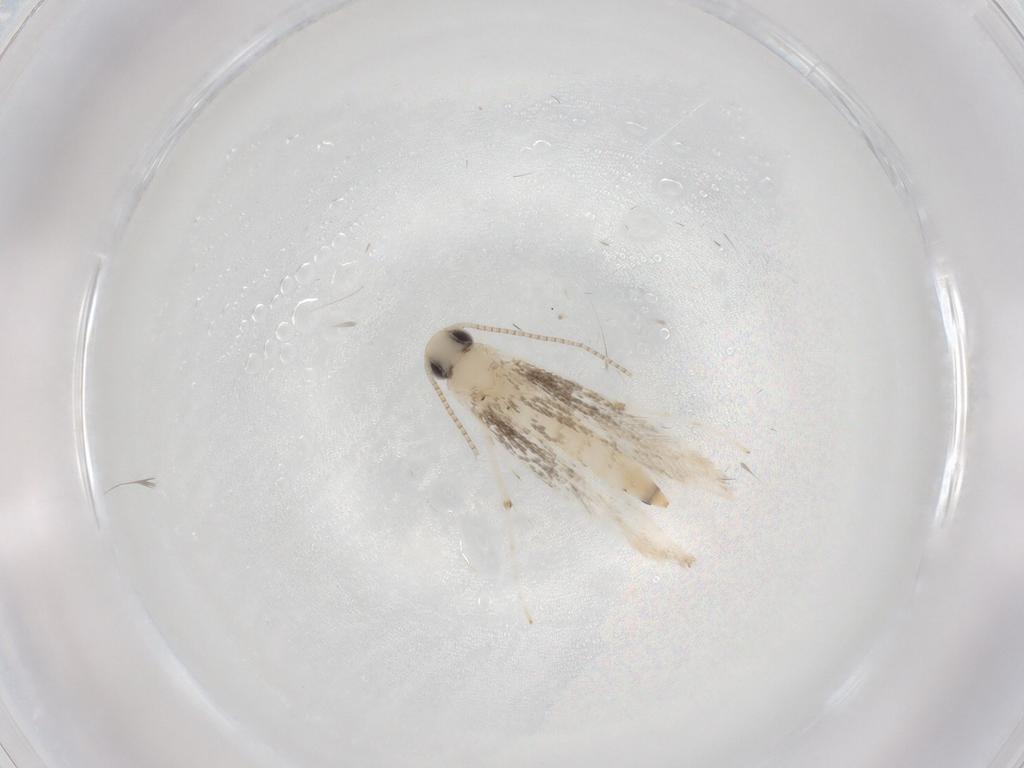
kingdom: Animalia
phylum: Arthropoda
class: Insecta
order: Lepidoptera
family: Gracillariidae
